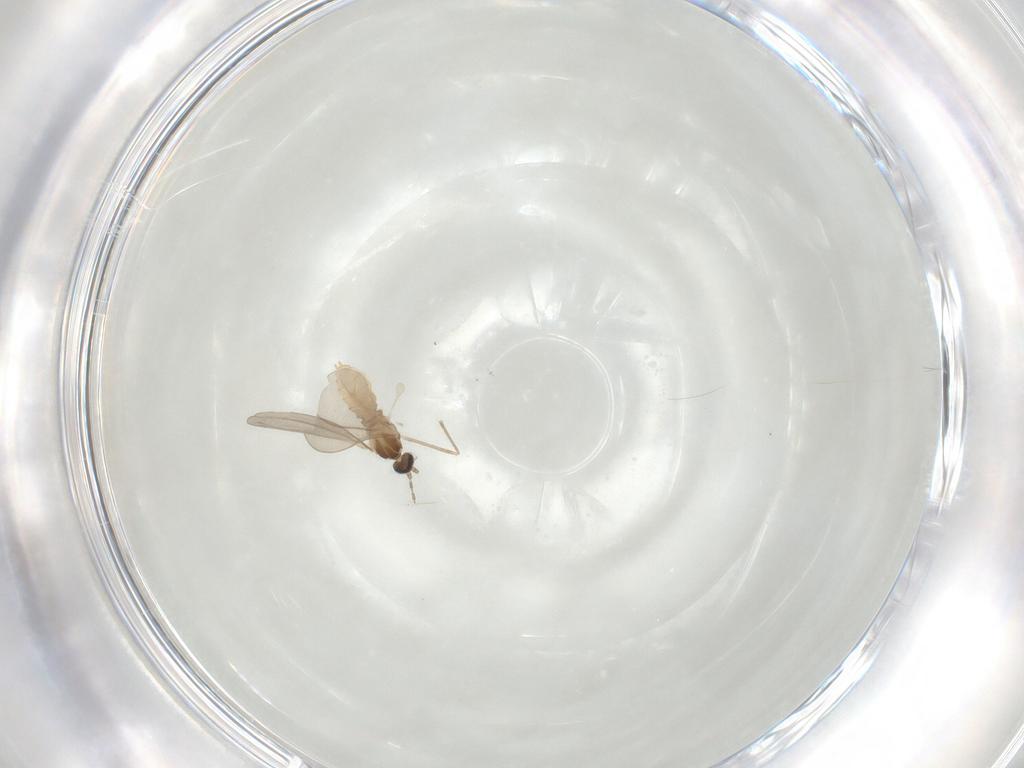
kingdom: Animalia
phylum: Arthropoda
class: Insecta
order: Diptera
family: Cecidomyiidae
